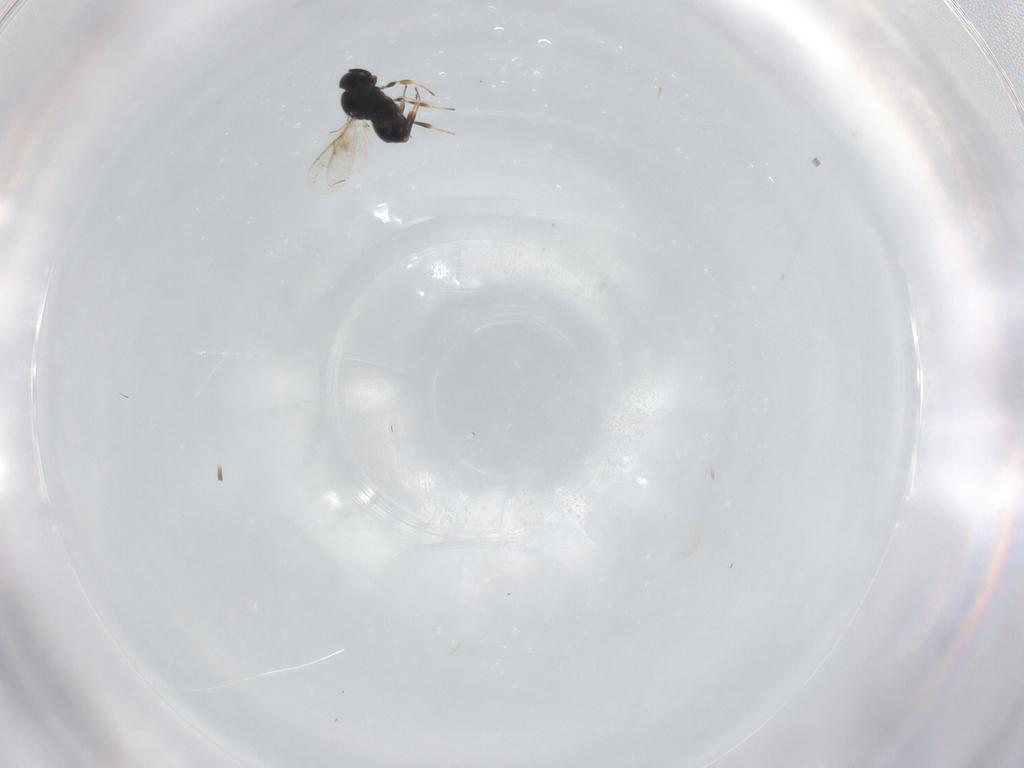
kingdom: Animalia
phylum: Arthropoda
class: Insecta
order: Hymenoptera
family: Scelionidae
